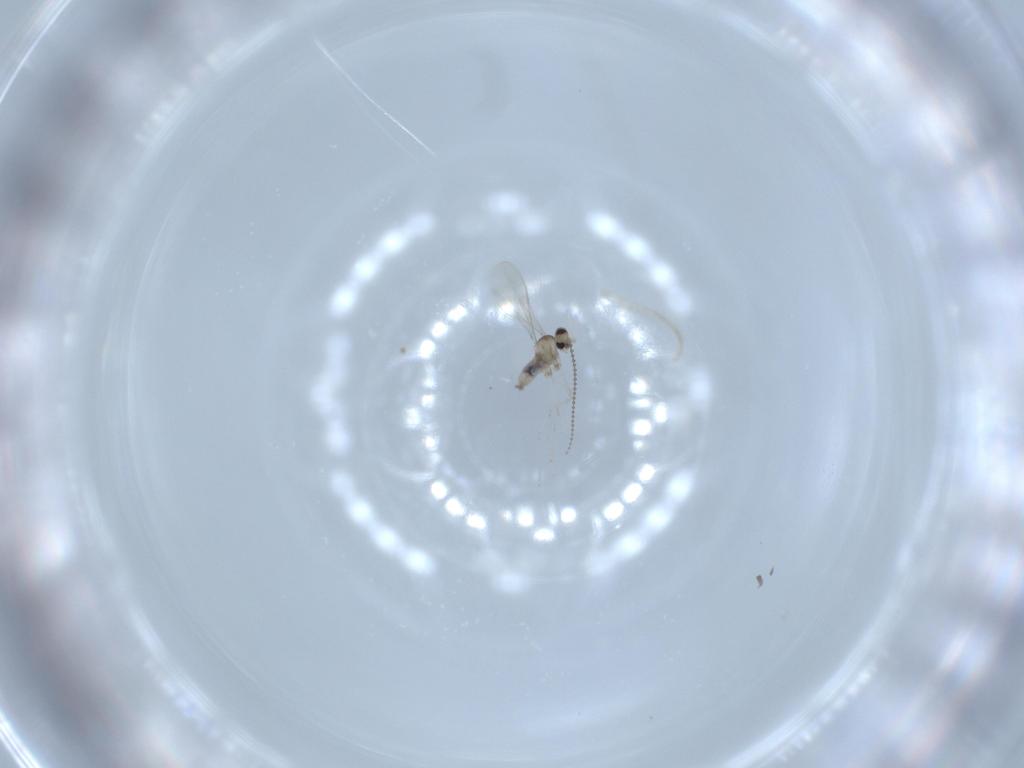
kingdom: Animalia
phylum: Arthropoda
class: Insecta
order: Diptera
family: Cecidomyiidae
